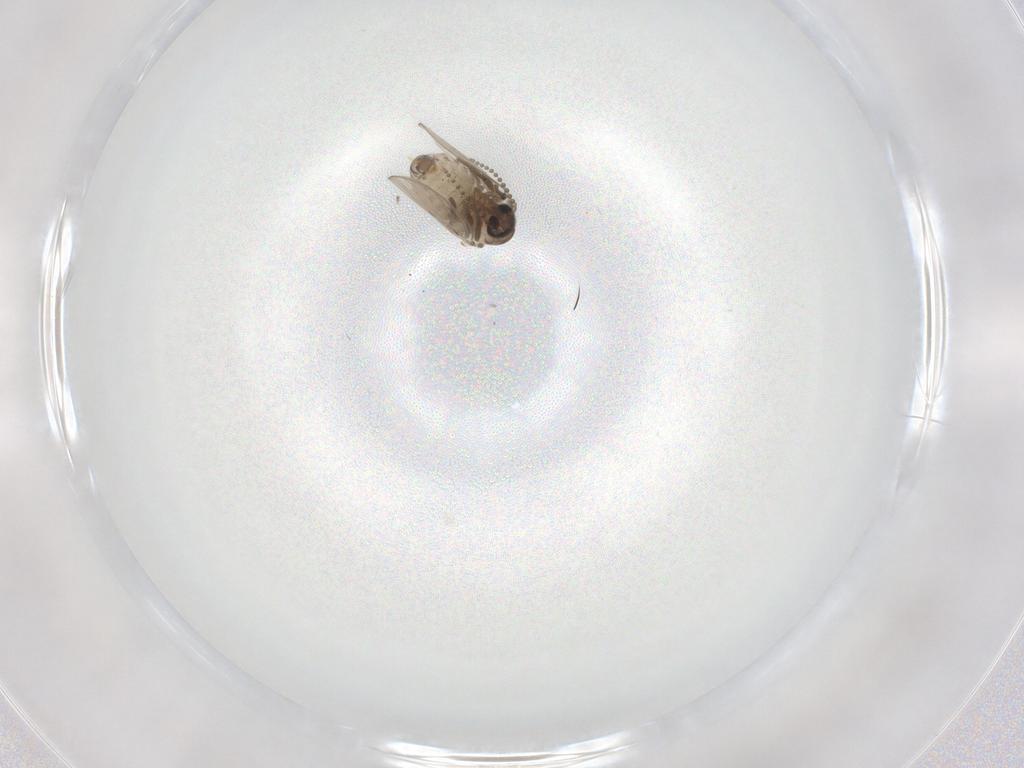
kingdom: Animalia
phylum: Arthropoda
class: Insecta
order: Diptera
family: Psychodidae
